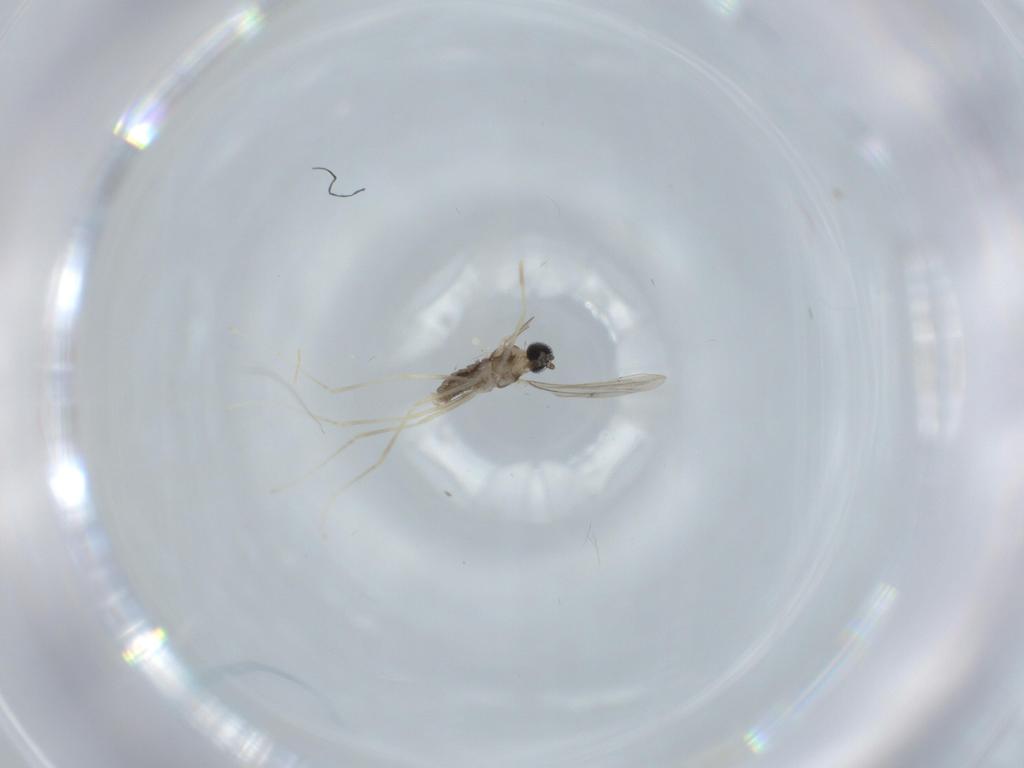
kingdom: Animalia
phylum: Arthropoda
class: Insecta
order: Diptera
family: Cecidomyiidae
